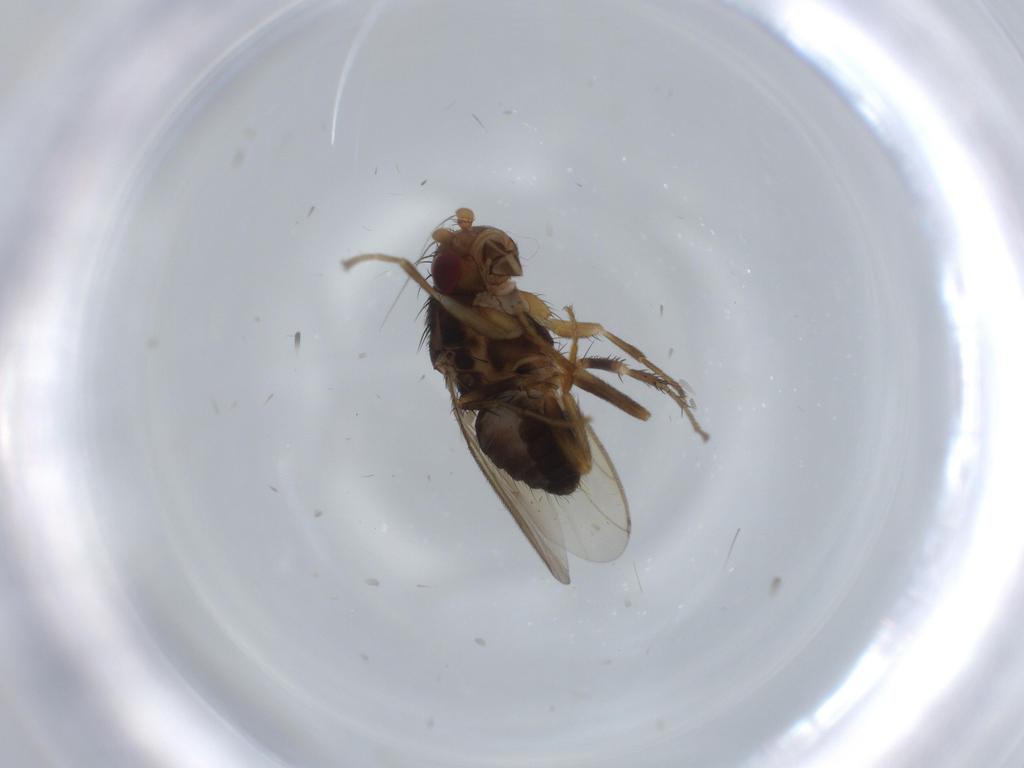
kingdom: Animalia
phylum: Arthropoda
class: Insecta
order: Diptera
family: Sphaeroceridae
